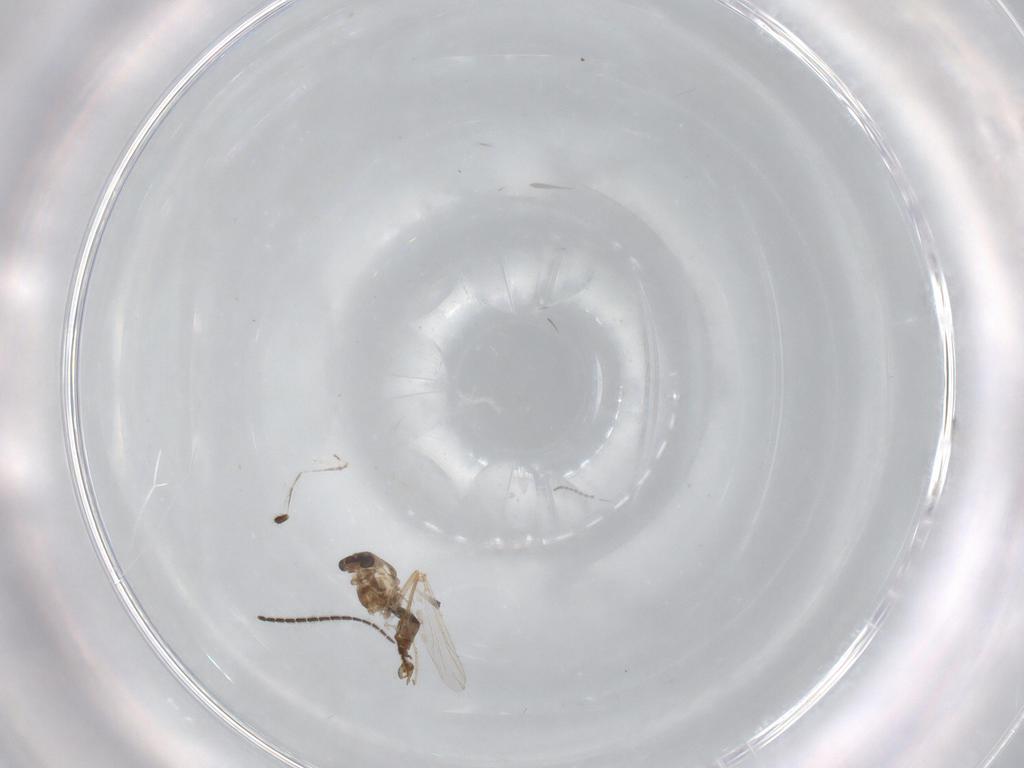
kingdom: Animalia
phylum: Arthropoda
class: Insecta
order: Diptera
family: Sciaridae
